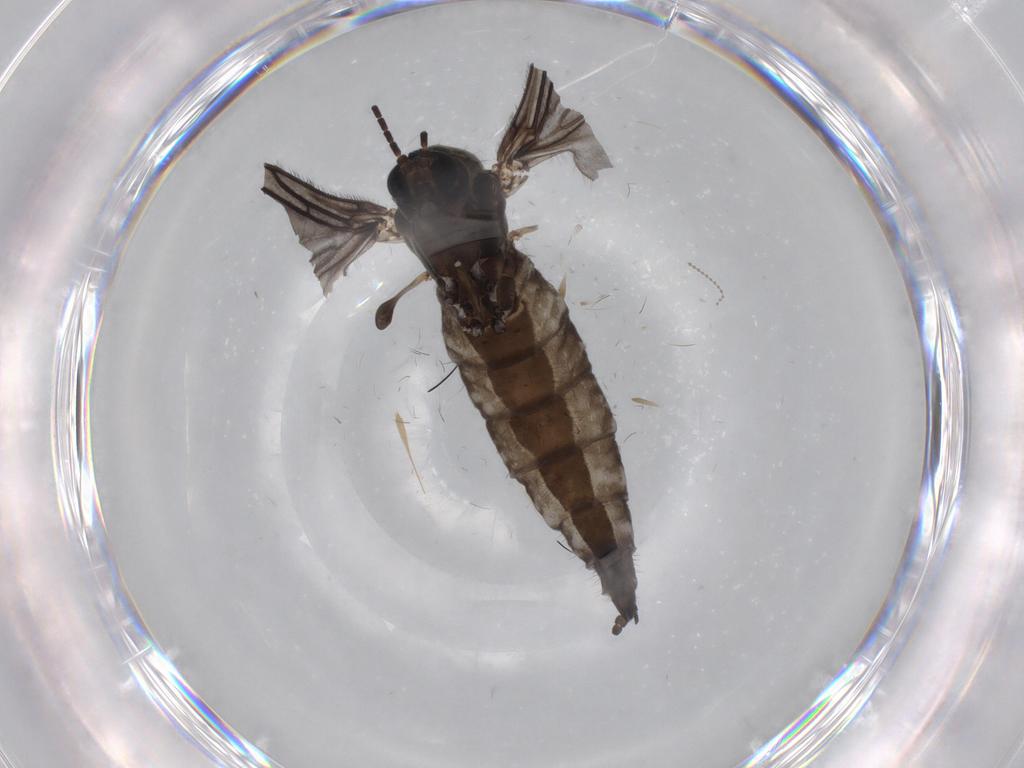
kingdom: Animalia
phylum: Arthropoda
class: Insecta
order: Diptera
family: Sciaridae
